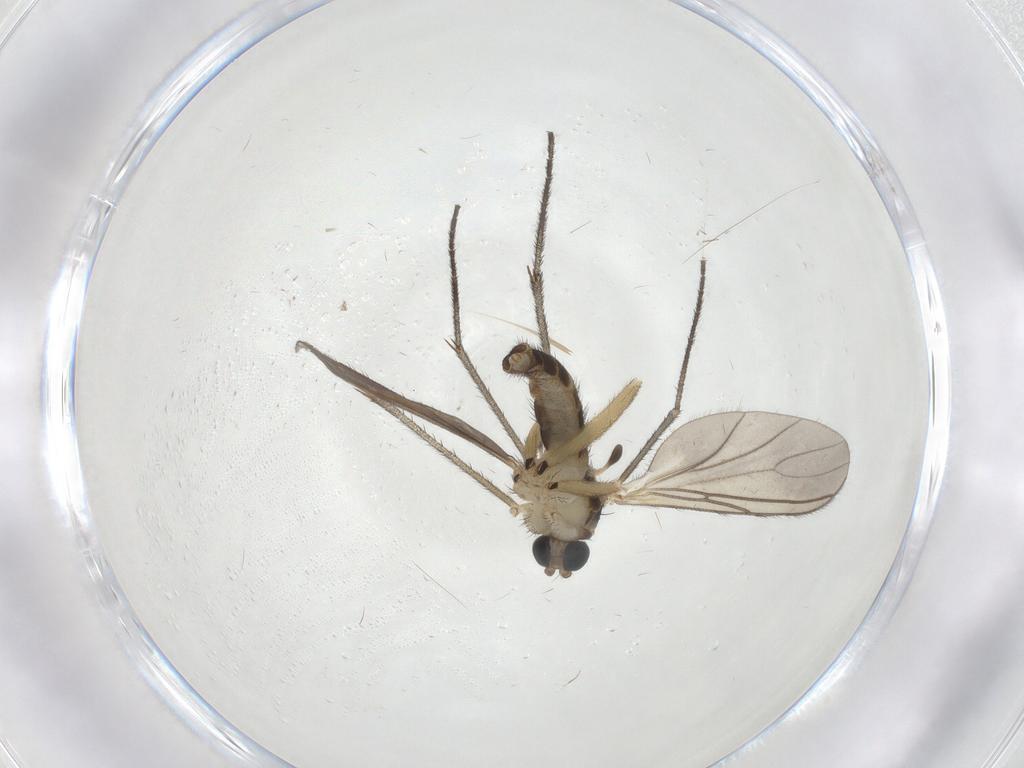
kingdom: Animalia
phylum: Arthropoda
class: Insecta
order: Diptera
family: Sciaridae
